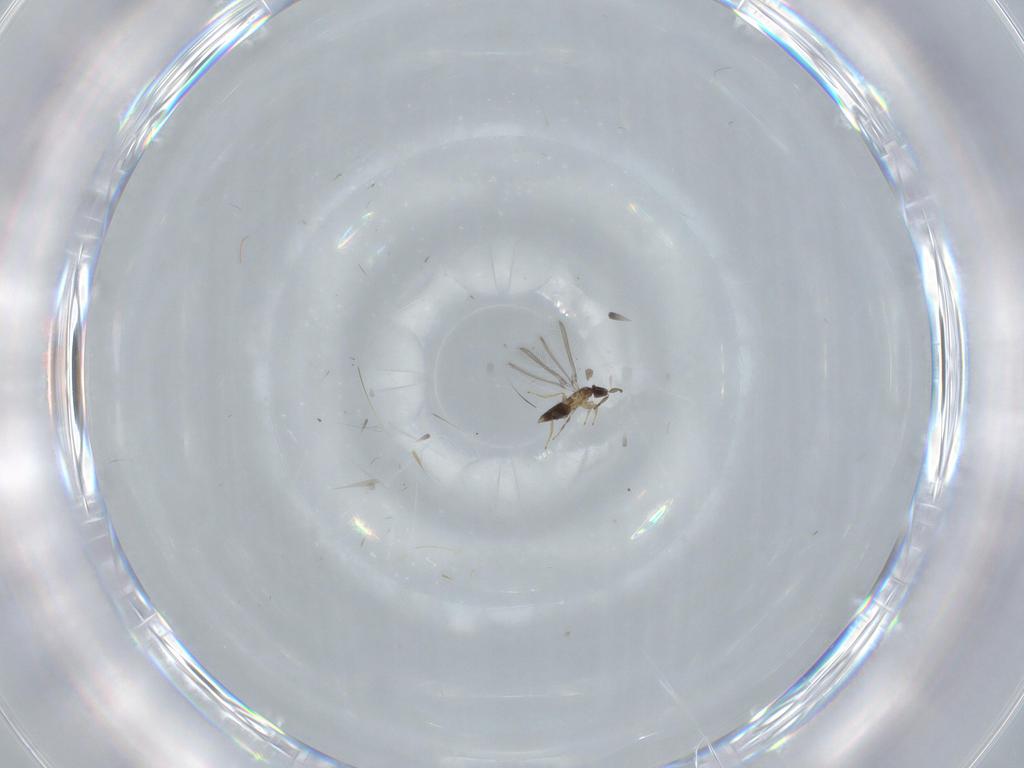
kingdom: Animalia
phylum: Arthropoda
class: Insecta
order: Hymenoptera
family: Mymaridae
